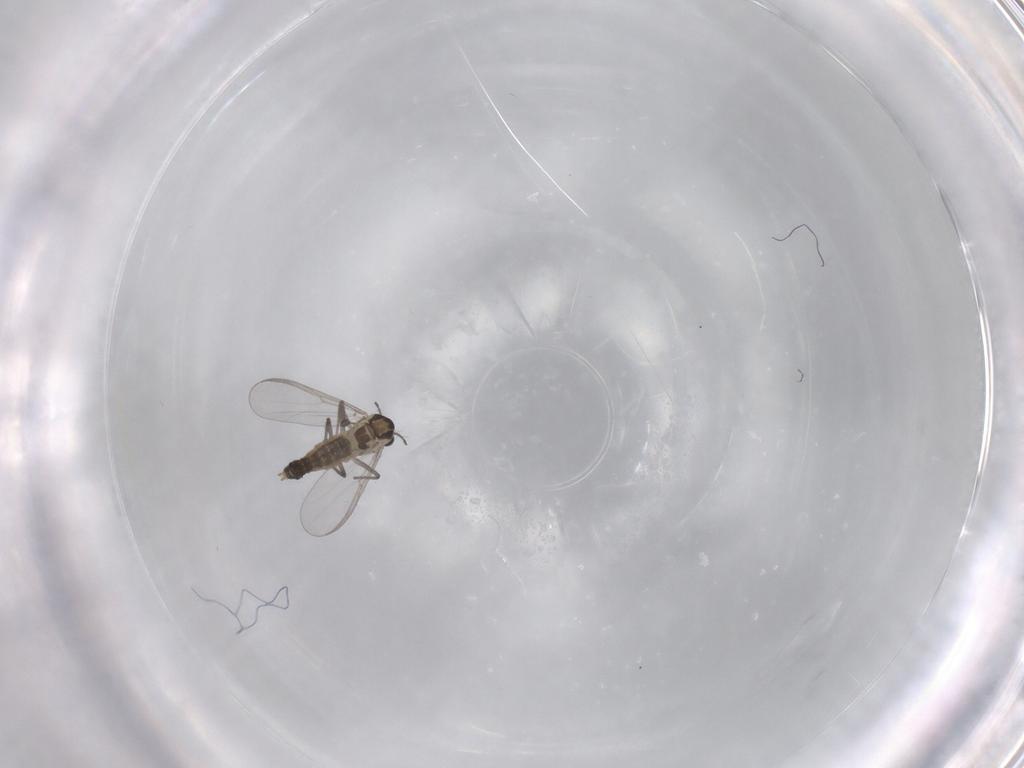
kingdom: Animalia
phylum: Arthropoda
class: Insecta
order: Diptera
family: Chironomidae
